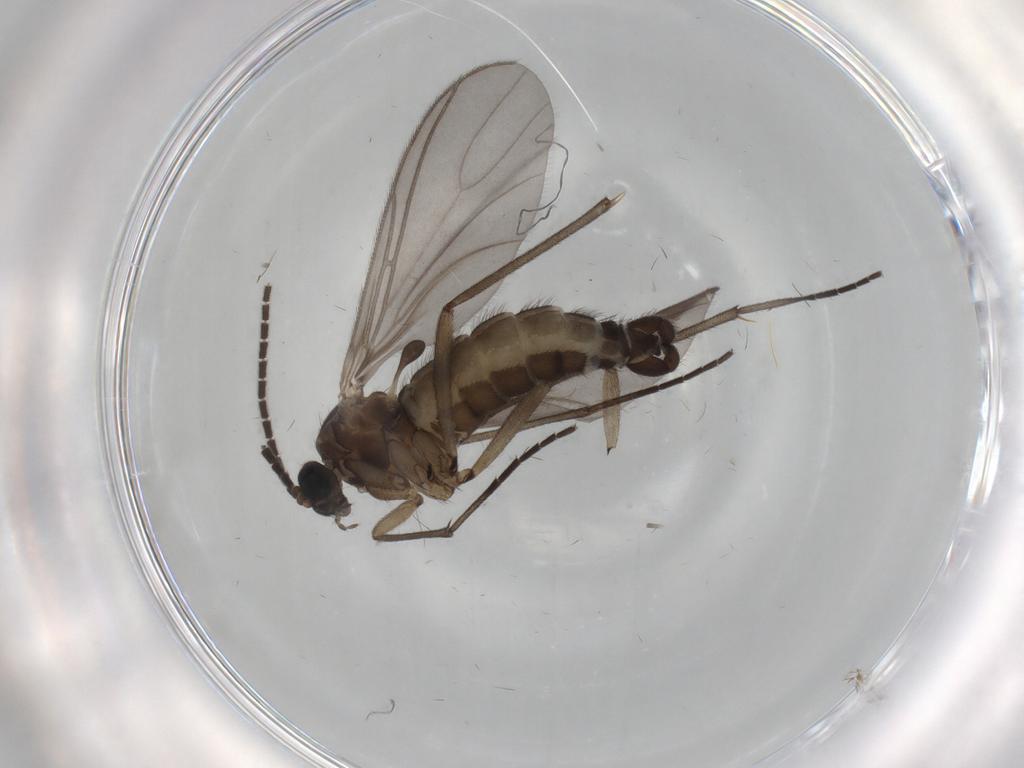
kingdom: Animalia
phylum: Arthropoda
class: Insecta
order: Diptera
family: Sciaridae
